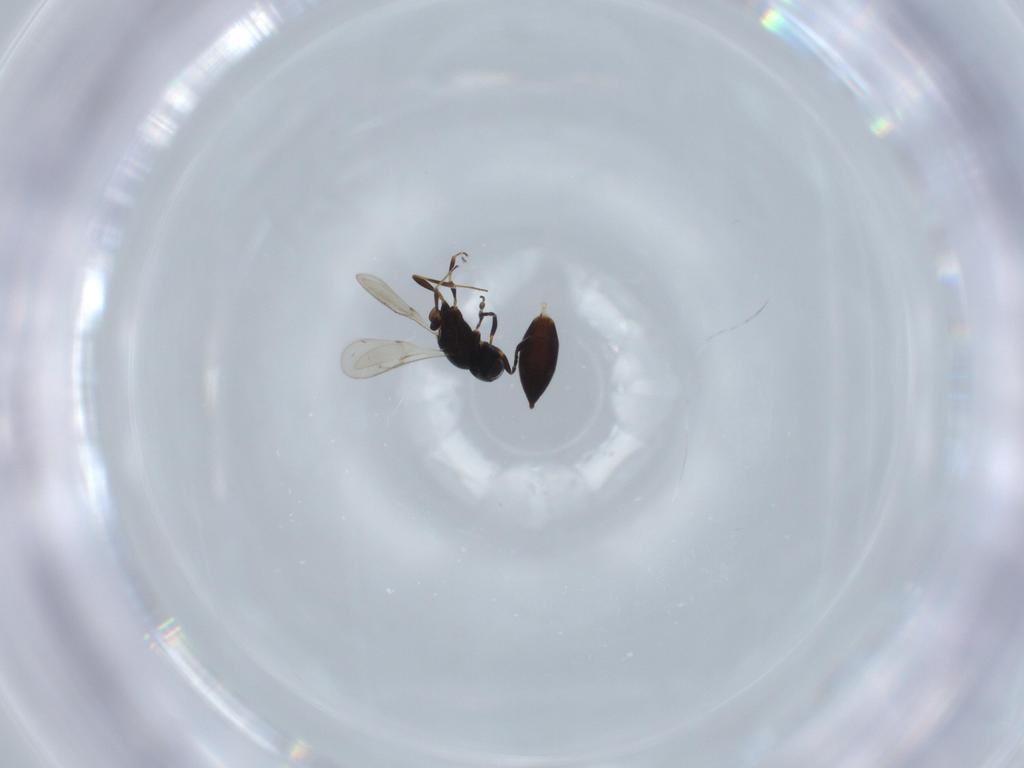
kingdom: Animalia
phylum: Arthropoda
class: Insecta
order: Hymenoptera
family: Scelionidae
